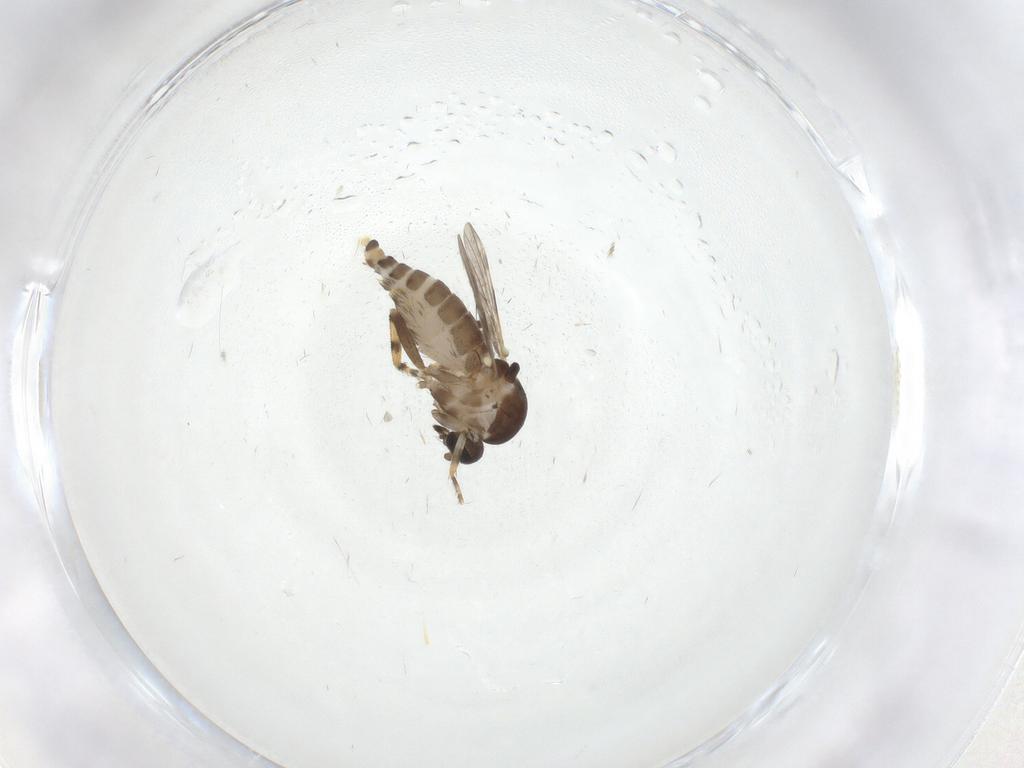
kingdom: Animalia
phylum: Arthropoda
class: Insecta
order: Diptera
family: Ceratopogonidae
